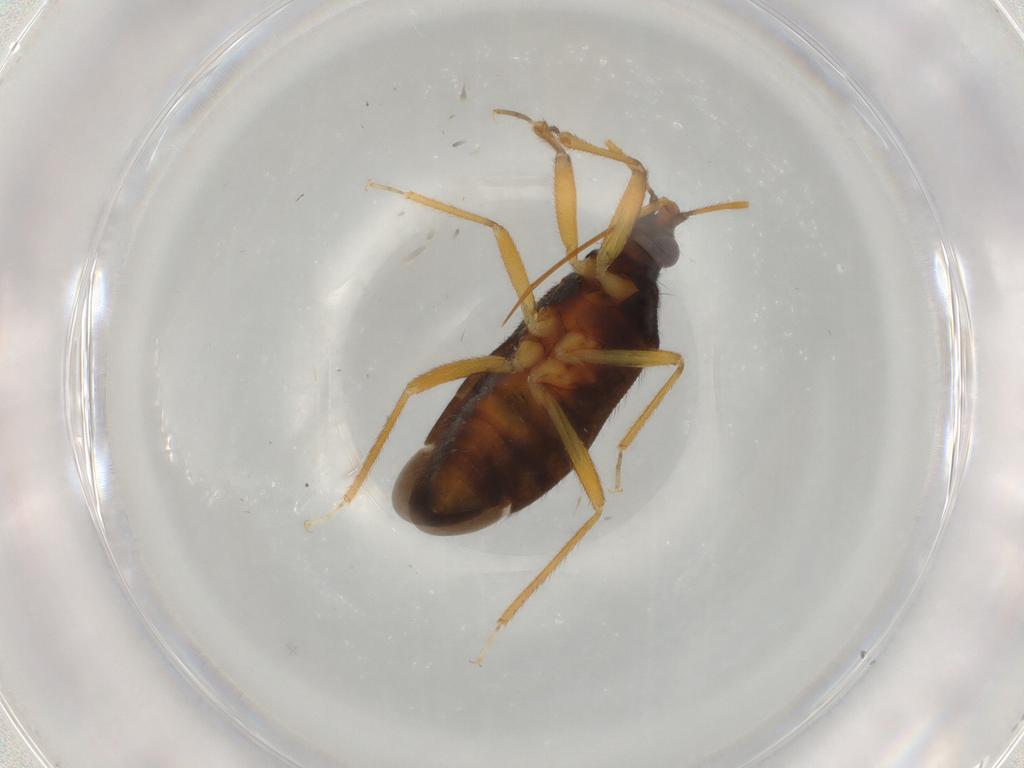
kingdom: Animalia
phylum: Arthropoda
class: Insecta
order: Hemiptera
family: Anthocoridae
